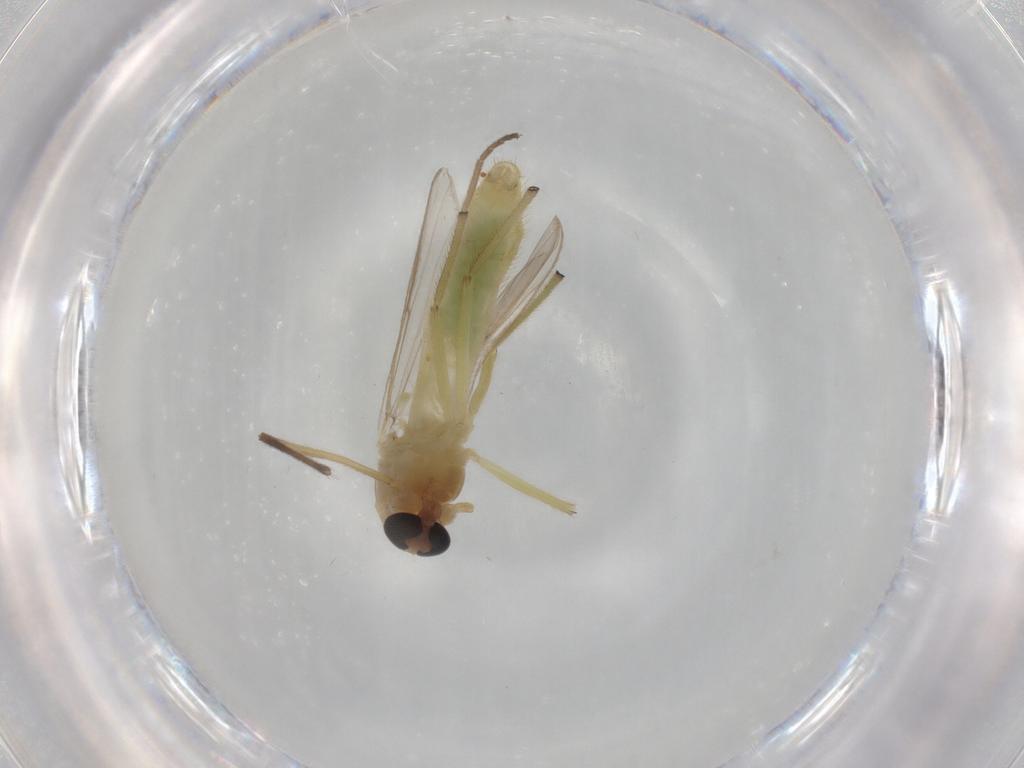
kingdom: Animalia
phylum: Arthropoda
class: Insecta
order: Diptera
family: Chironomidae
